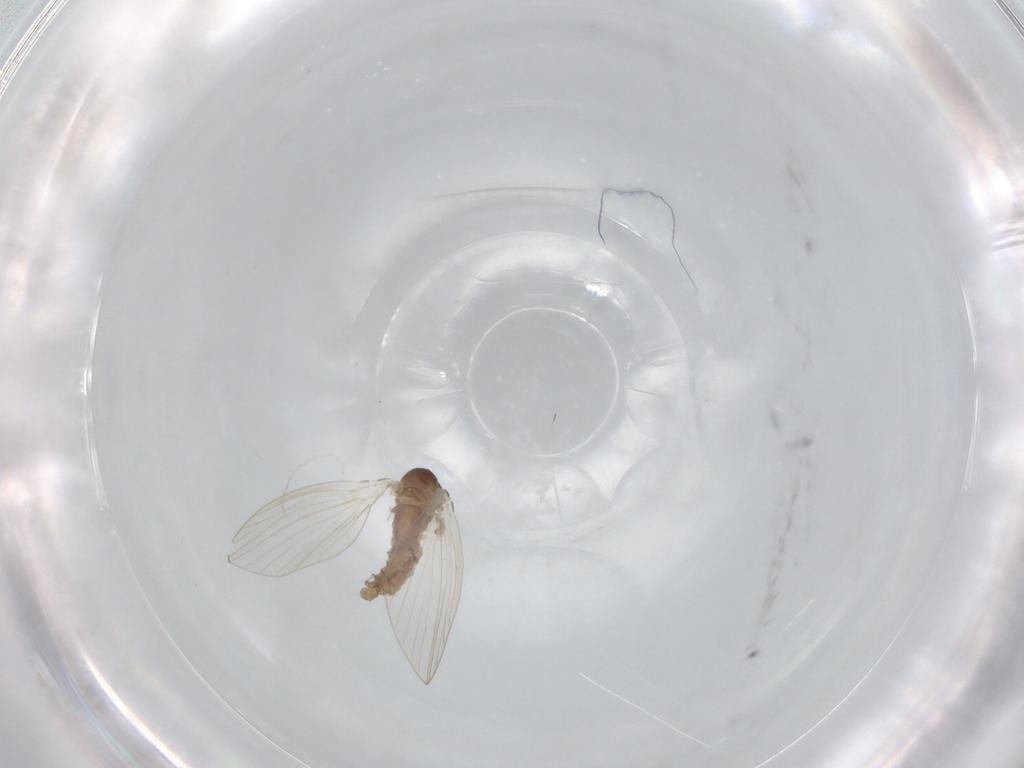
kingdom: Animalia
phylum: Arthropoda
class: Insecta
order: Diptera
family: Psychodidae
